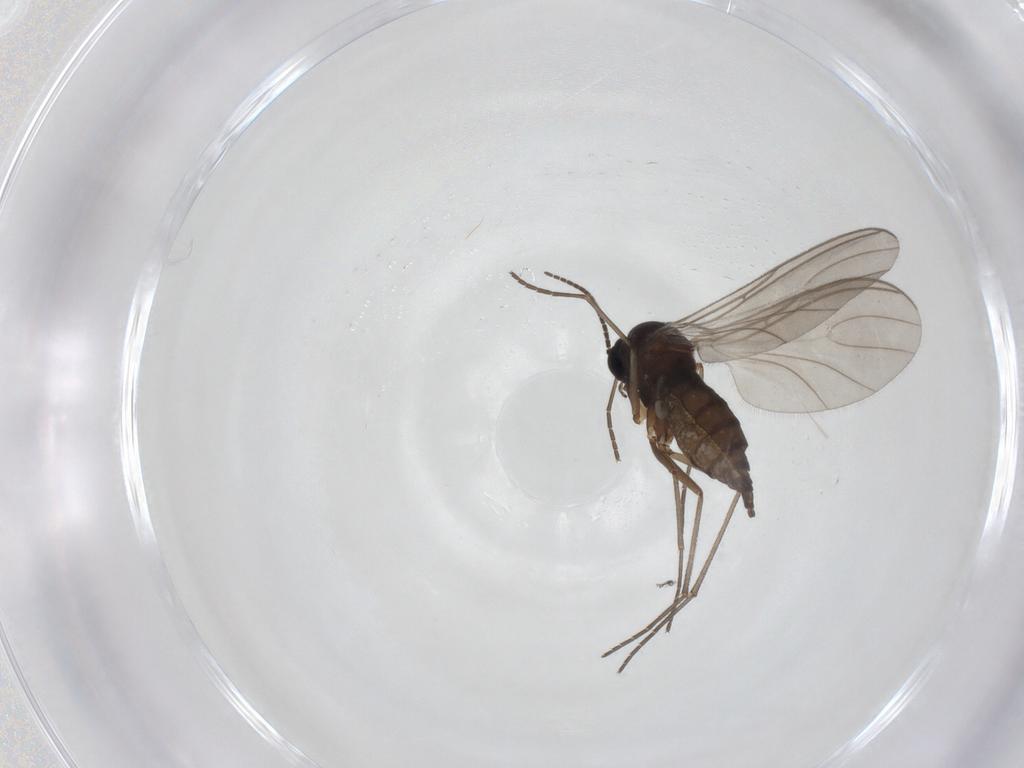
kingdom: Animalia
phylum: Arthropoda
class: Insecta
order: Diptera
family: Sciaridae
